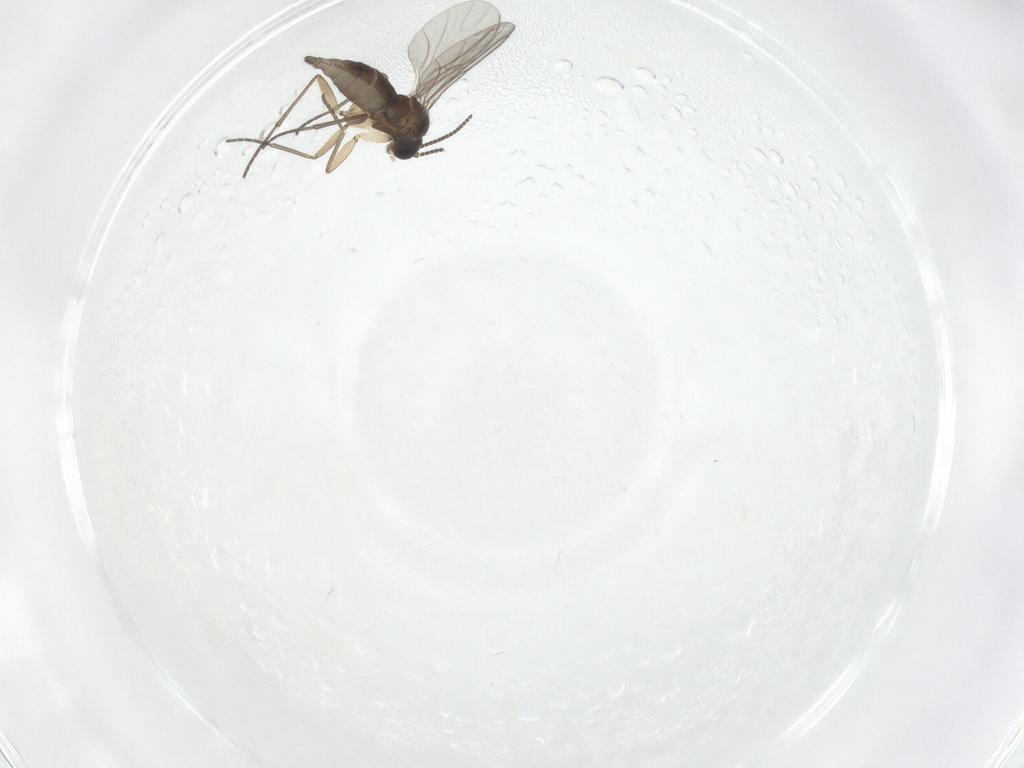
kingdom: Animalia
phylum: Arthropoda
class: Insecta
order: Diptera
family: Sciaridae
